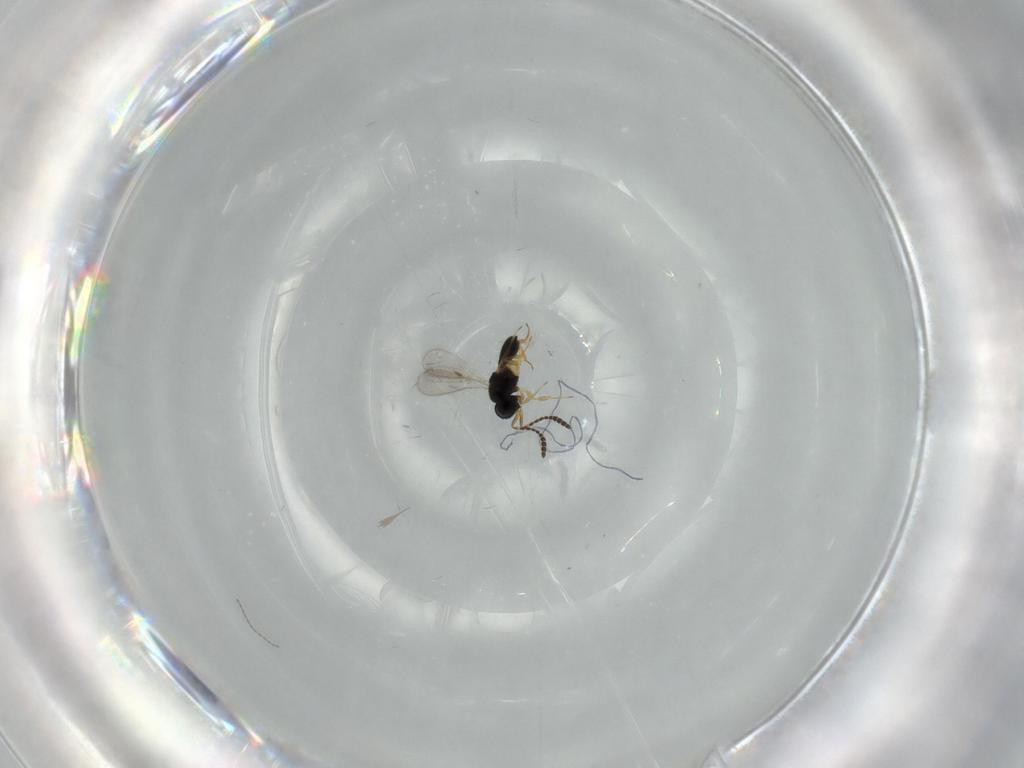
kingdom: Animalia
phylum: Arthropoda
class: Insecta
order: Hymenoptera
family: Scelionidae
